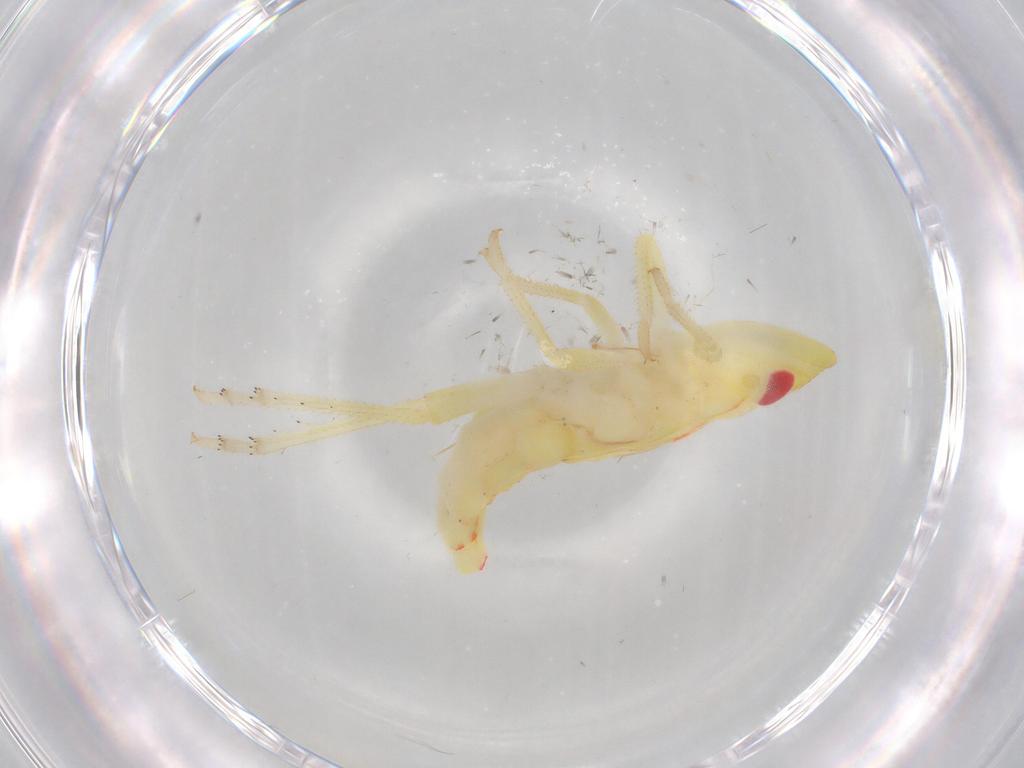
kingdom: Animalia
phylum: Arthropoda
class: Insecta
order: Hemiptera
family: Tropiduchidae
